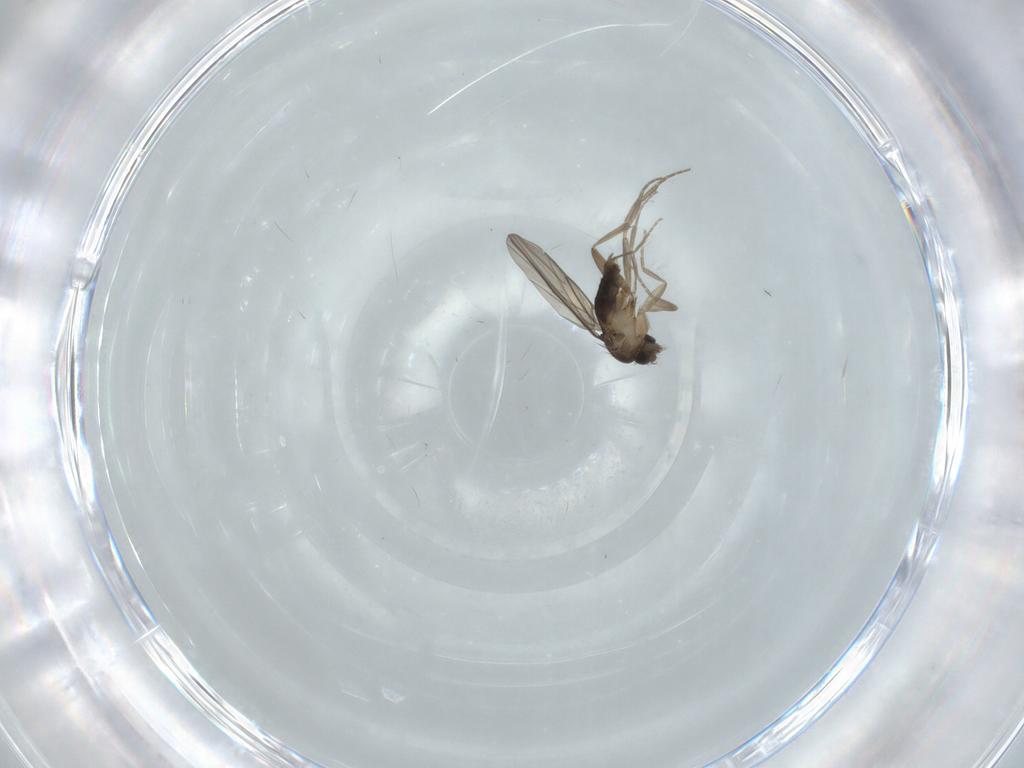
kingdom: Animalia
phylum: Arthropoda
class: Insecta
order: Diptera
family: Phoridae
